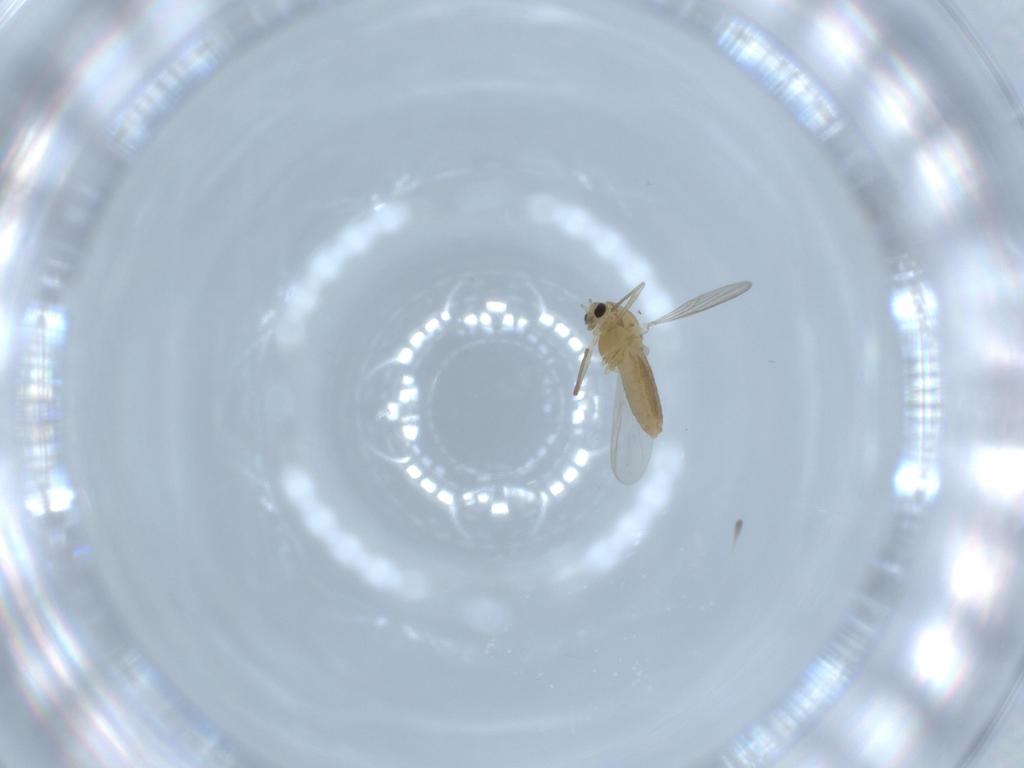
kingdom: Animalia
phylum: Arthropoda
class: Insecta
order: Diptera
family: Chironomidae
